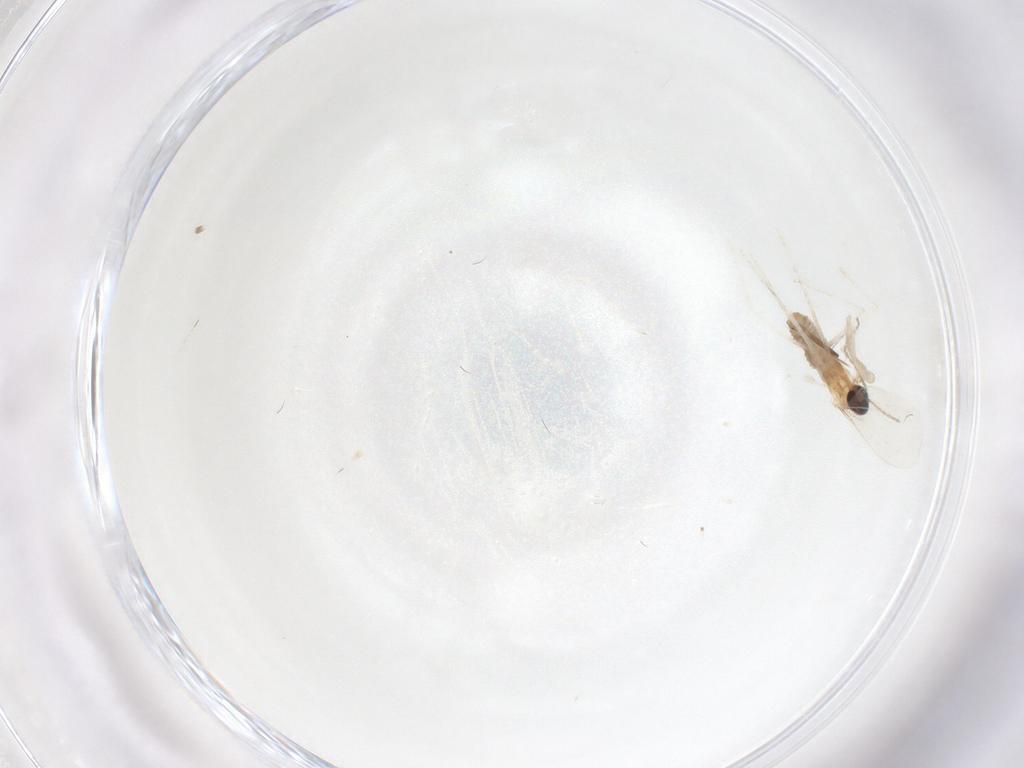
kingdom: Animalia
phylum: Arthropoda
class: Insecta
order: Diptera
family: Cecidomyiidae
